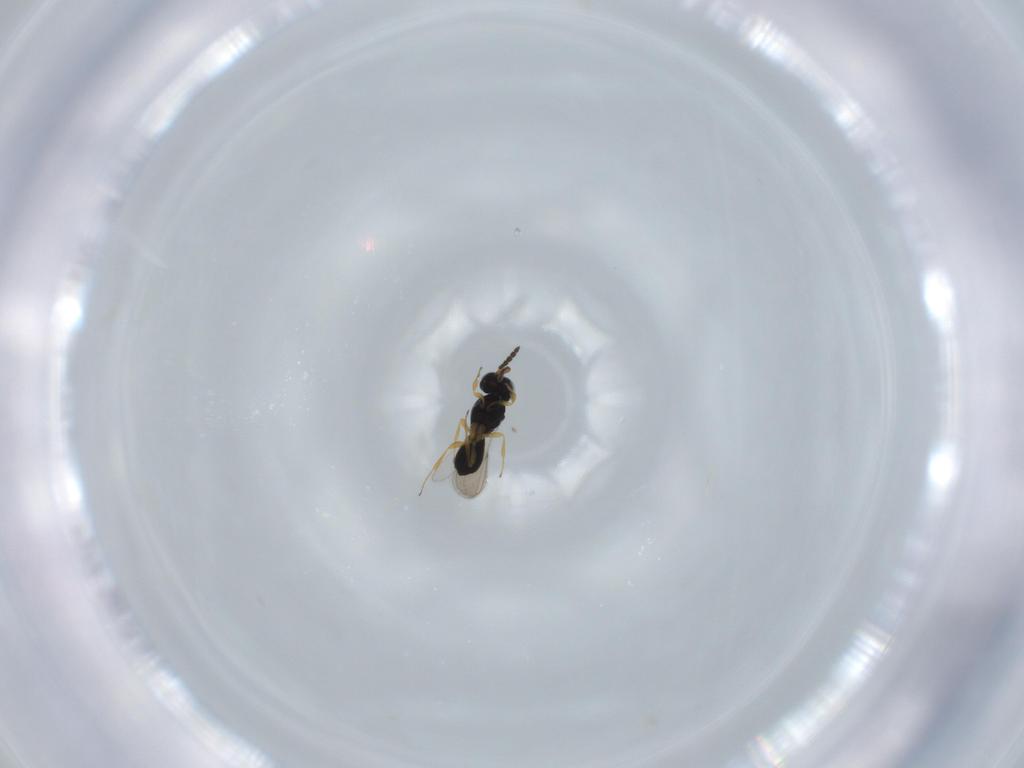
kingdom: Animalia
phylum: Arthropoda
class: Insecta
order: Hymenoptera
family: Scelionidae
